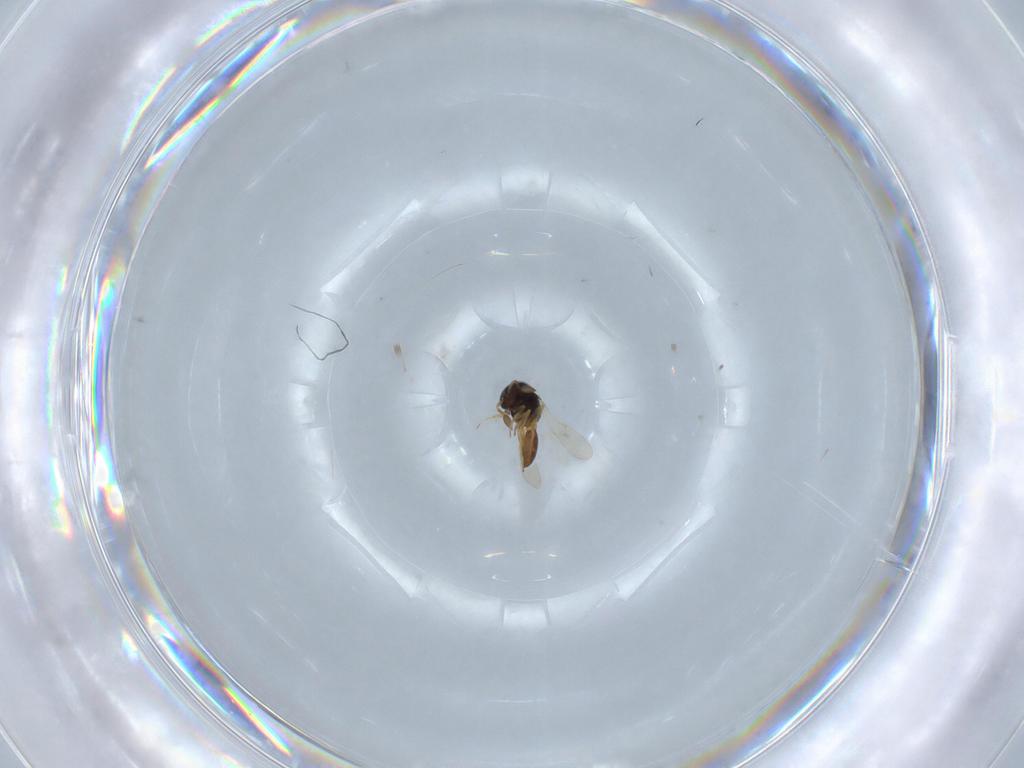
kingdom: Animalia
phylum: Arthropoda
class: Insecta
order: Hymenoptera
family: Scelionidae
